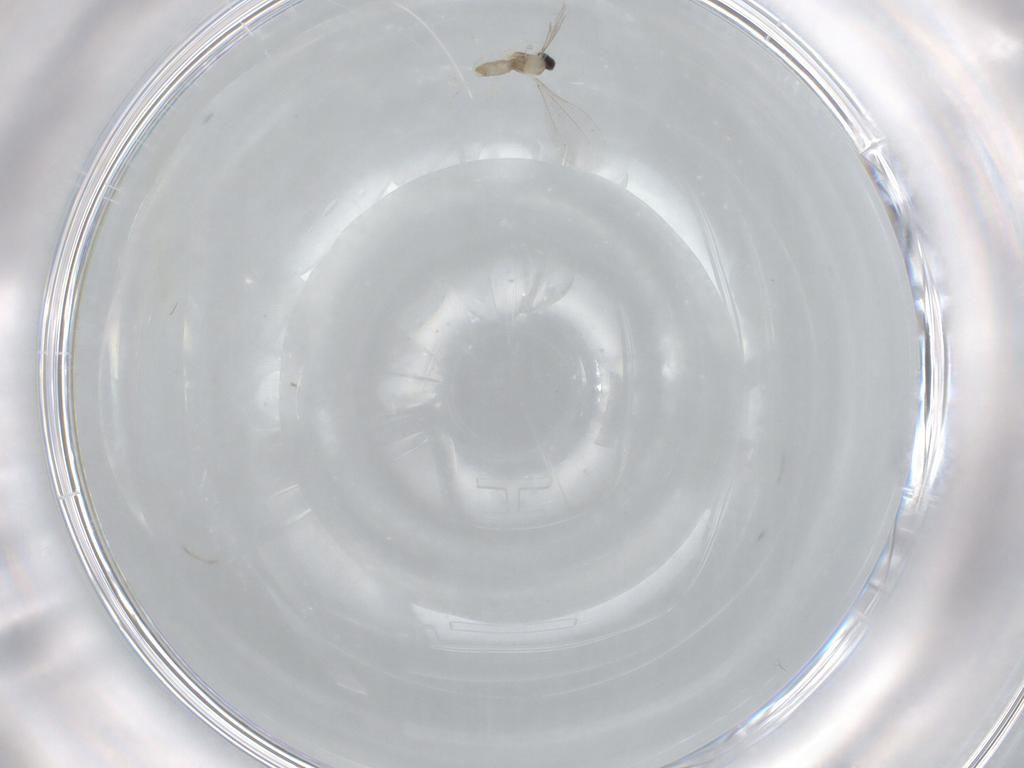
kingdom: Animalia
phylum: Arthropoda
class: Insecta
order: Diptera
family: Cecidomyiidae
